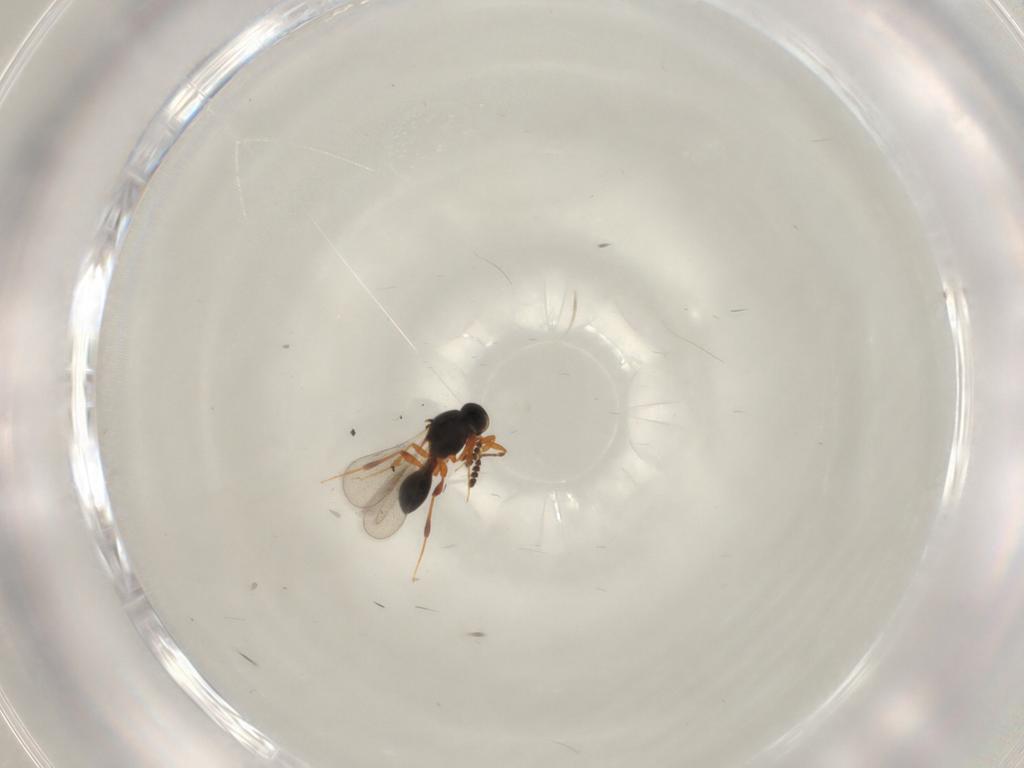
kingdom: Animalia
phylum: Arthropoda
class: Insecta
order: Hymenoptera
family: Platygastridae
